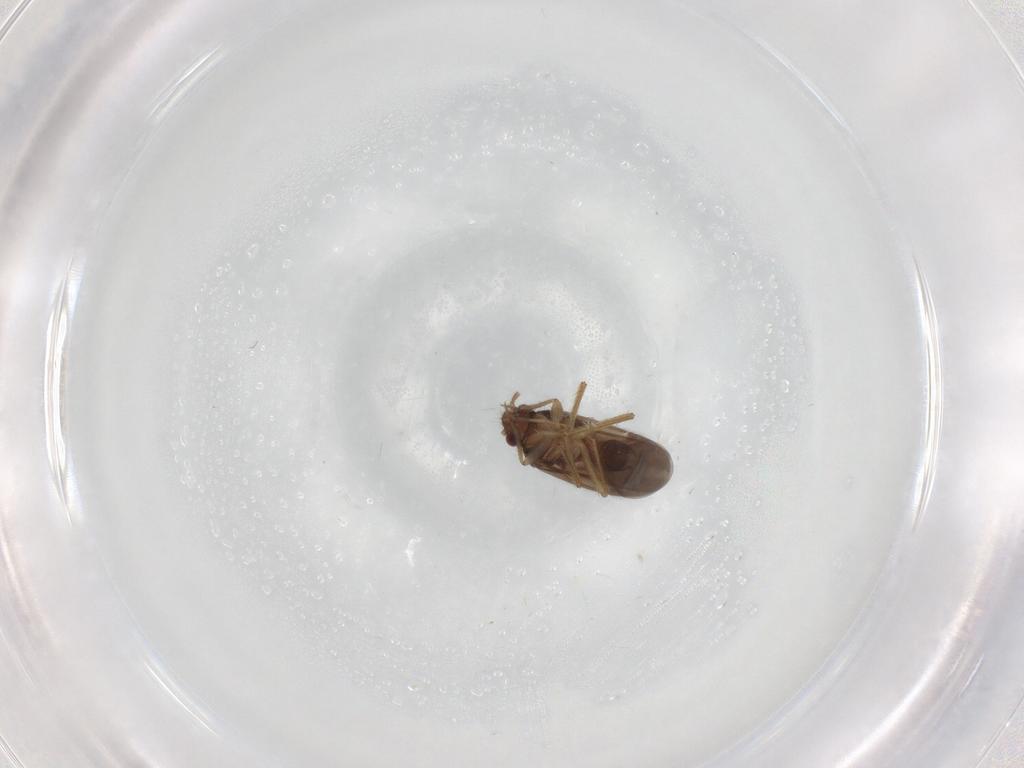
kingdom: Animalia
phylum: Arthropoda
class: Insecta
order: Hemiptera
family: Ceratocombidae
